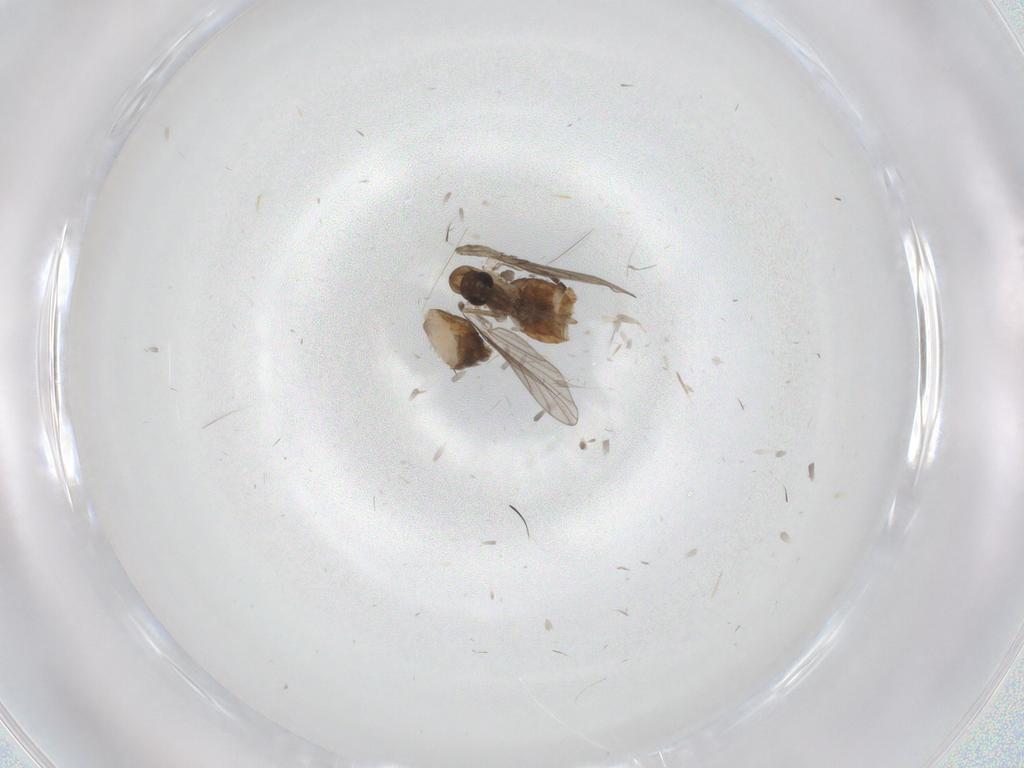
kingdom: Animalia
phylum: Arthropoda
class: Insecta
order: Diptera
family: Psychodidae
